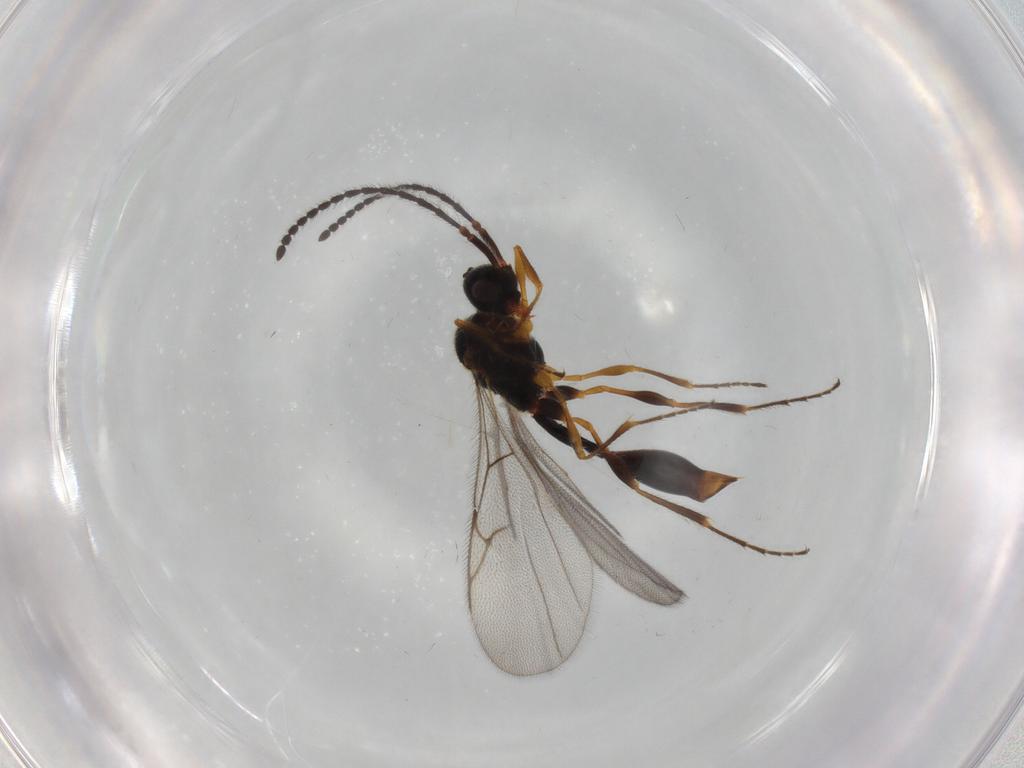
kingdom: Animalia
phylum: Arthropoda
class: Insecta
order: Hymenoptera
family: Diapriidae
